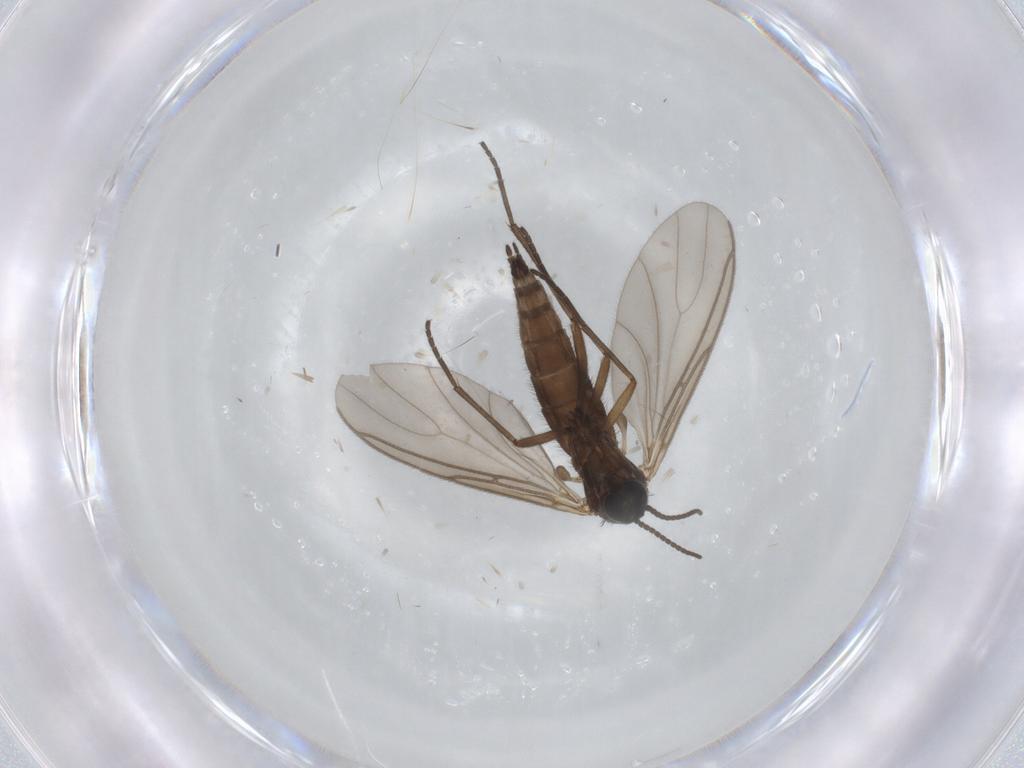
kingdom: Animalia
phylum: Arthropoda
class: Insecta
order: Diptera
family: Sciaridae
